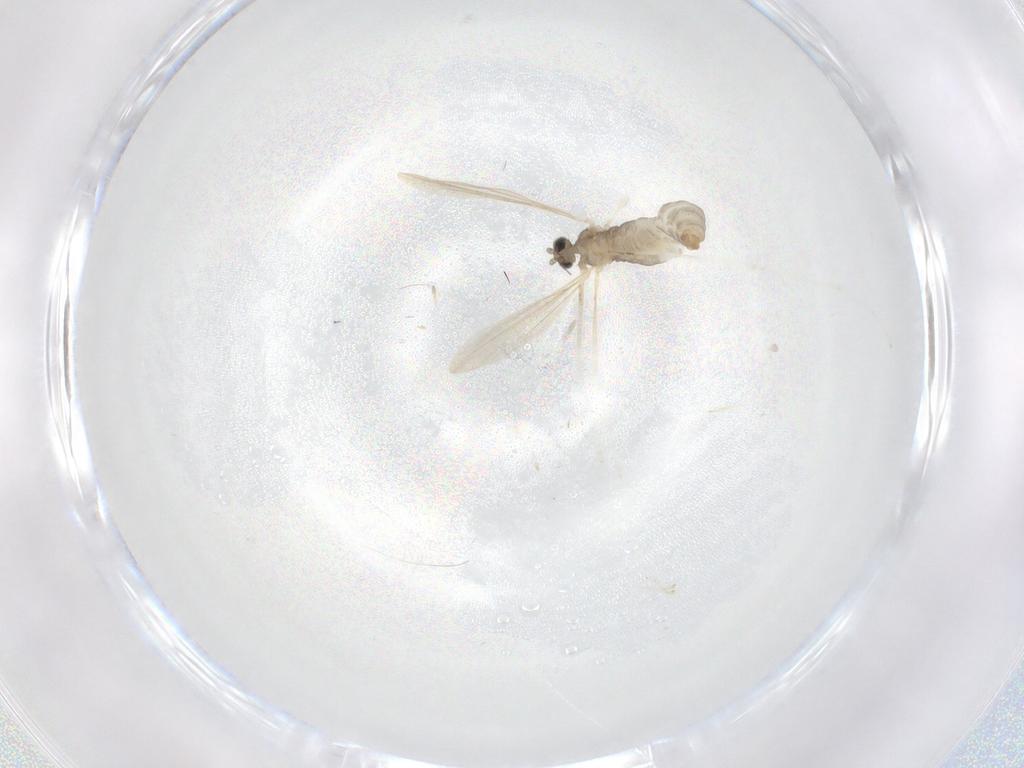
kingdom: Animalia
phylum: Arthropoda
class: Insecta
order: Diptera
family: Cecidomyiidae
